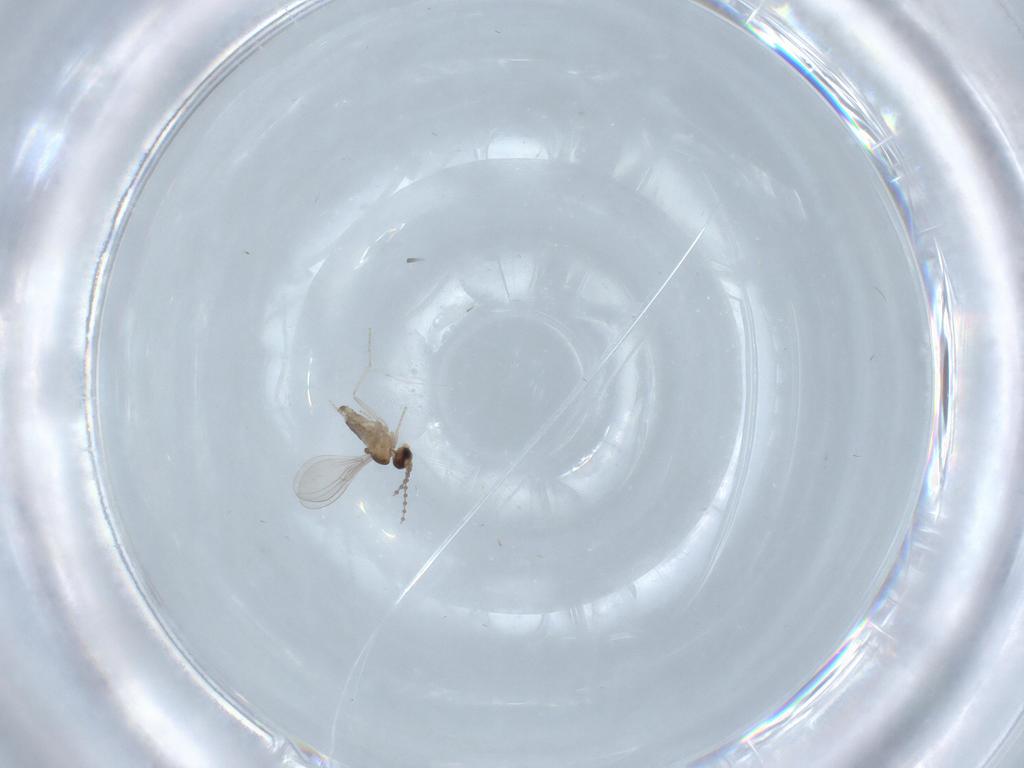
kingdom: Animalia
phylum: Arthropoda
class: Insecta
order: Diptera
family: Cecidomyiidae
